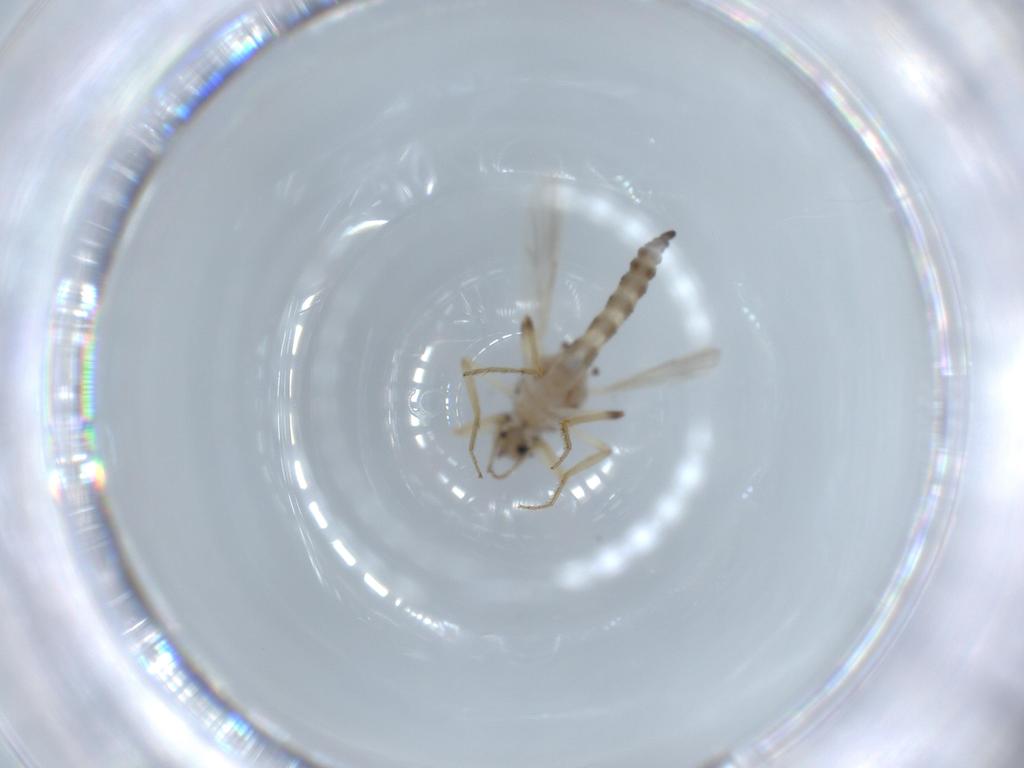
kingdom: Animalia
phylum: Arthropoda
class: Insecta
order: Diptera
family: Ceratopogonidae
